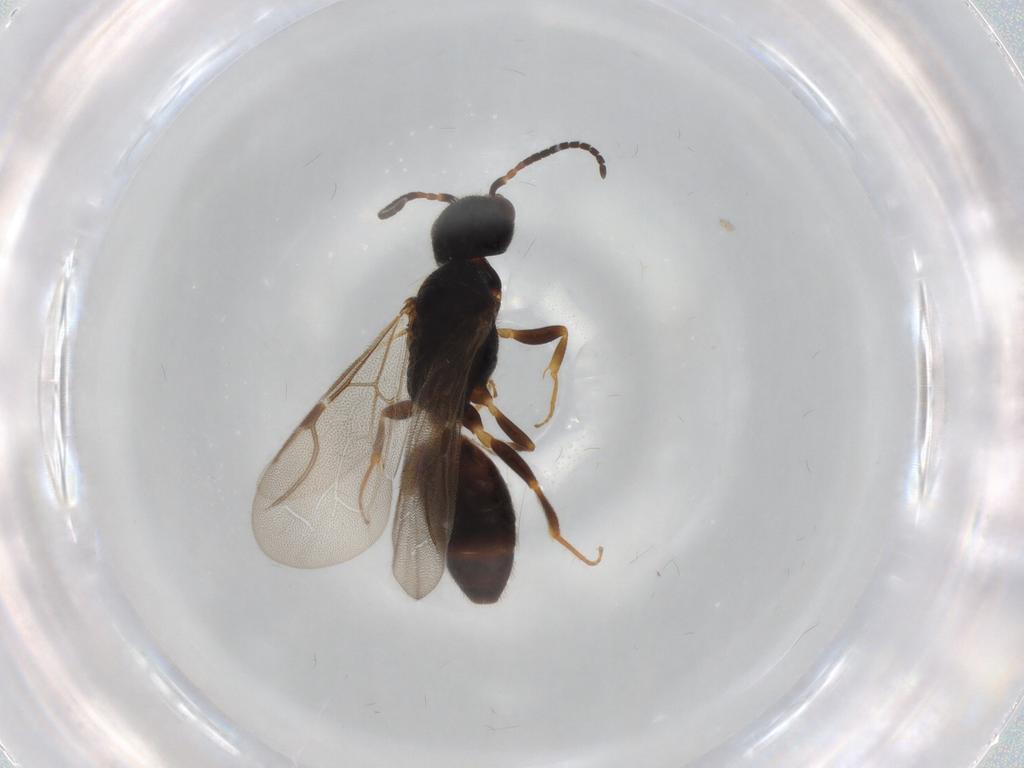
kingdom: Animalia
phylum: Arthropoda
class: Insecta
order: Hymenoptera
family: Bethylidae
